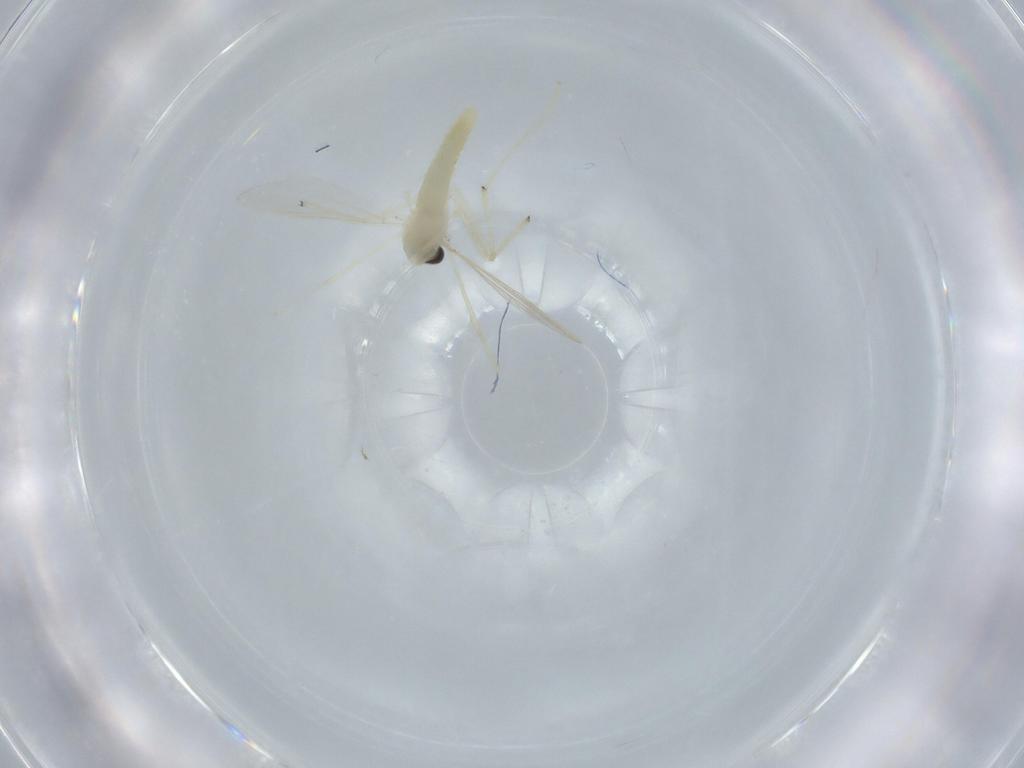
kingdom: Animalia
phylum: Arthropoda
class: Insecta
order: Diptera
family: Chironomidae
